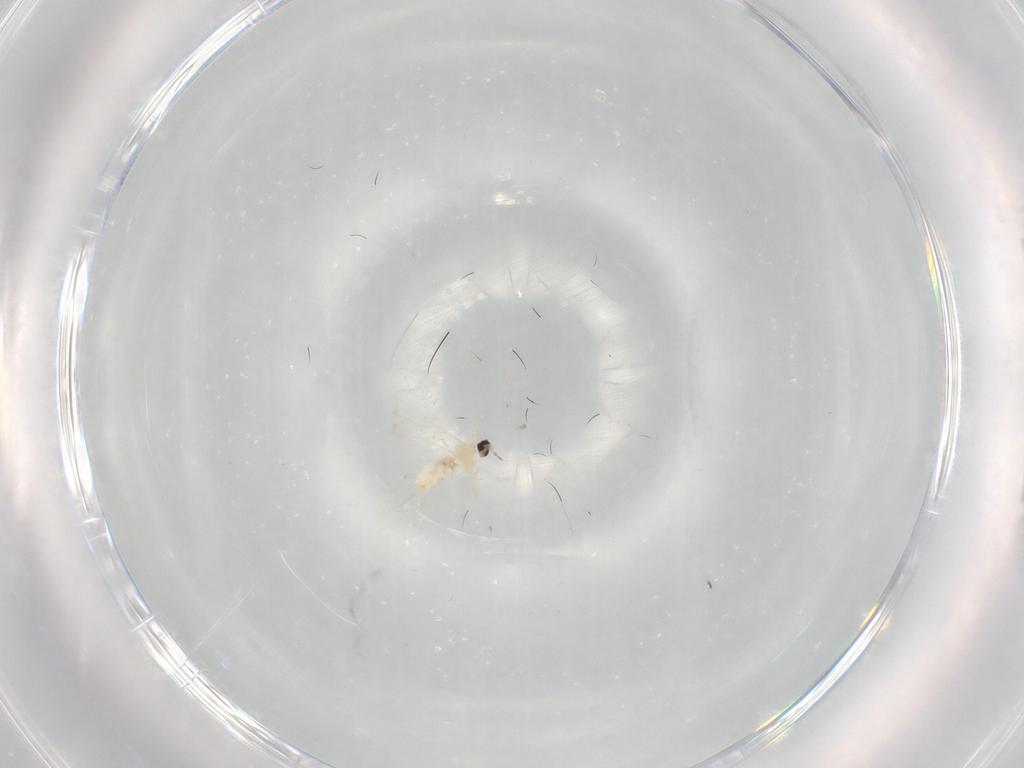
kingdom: Animalia
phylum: Arthropoda
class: Insecta
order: Diptera
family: Cecidomyiidae
